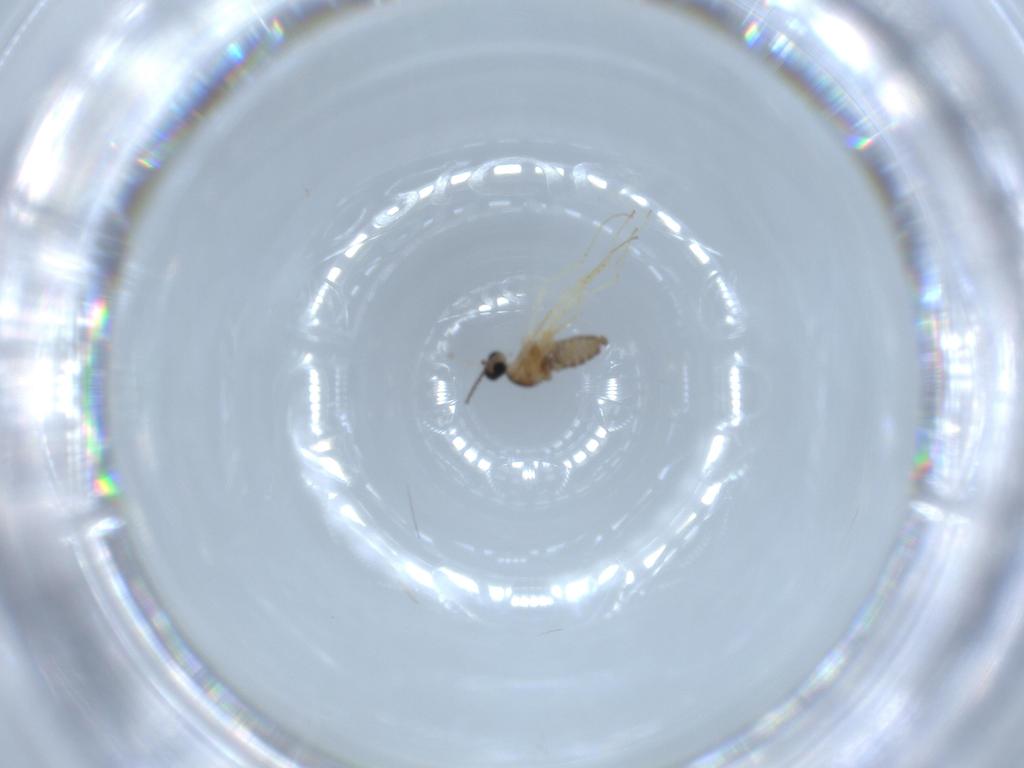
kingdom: Animalia
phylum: Arthropoda
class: Insecta
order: Diptera
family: Cecidomyiidae
